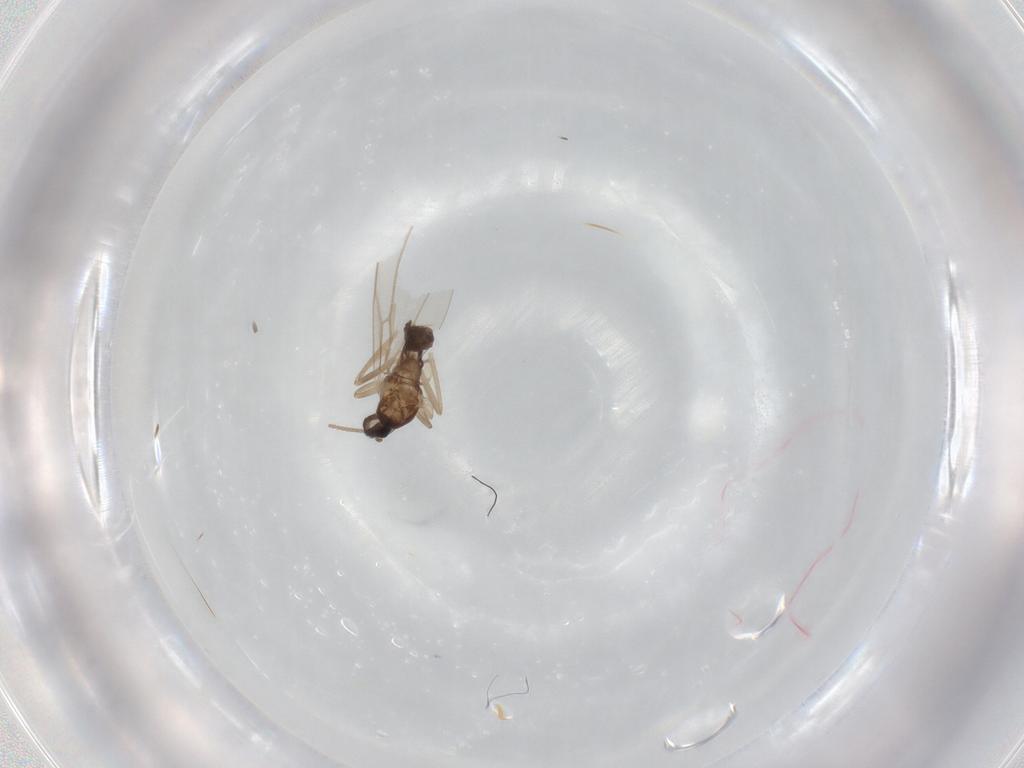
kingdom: Animalia
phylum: Arthropoda
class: Insecta
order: Diptera
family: Cecidomyiidae
